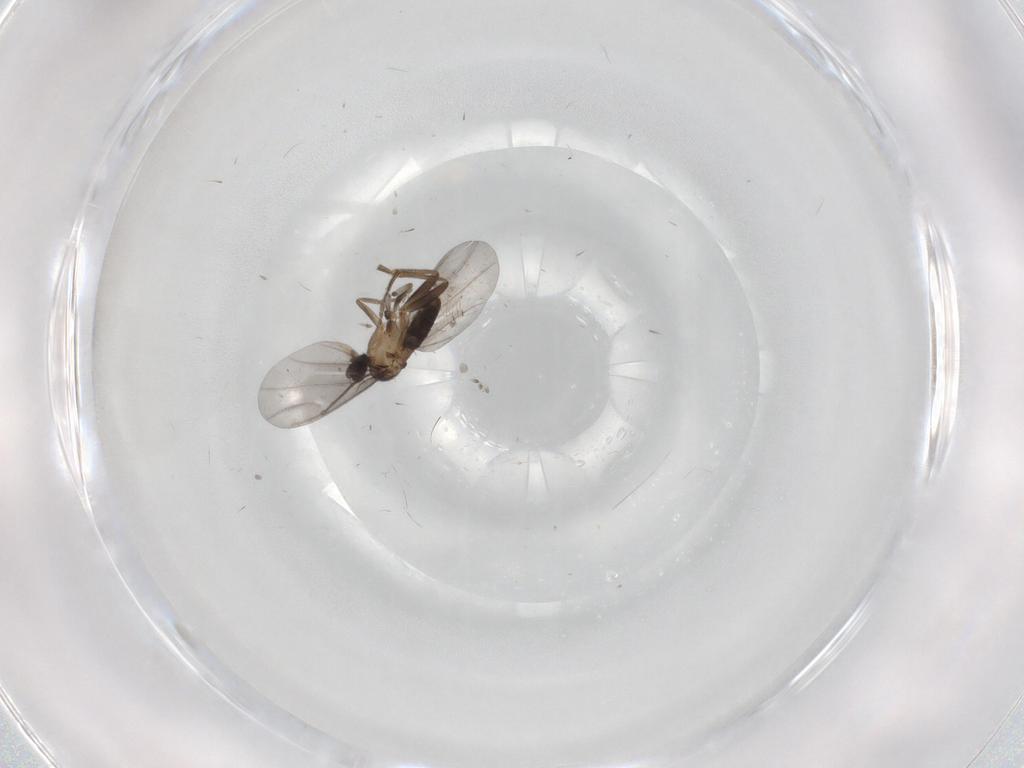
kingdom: Animalia
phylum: Arthropoda
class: Insecta
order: Diptera
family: Phoridae
